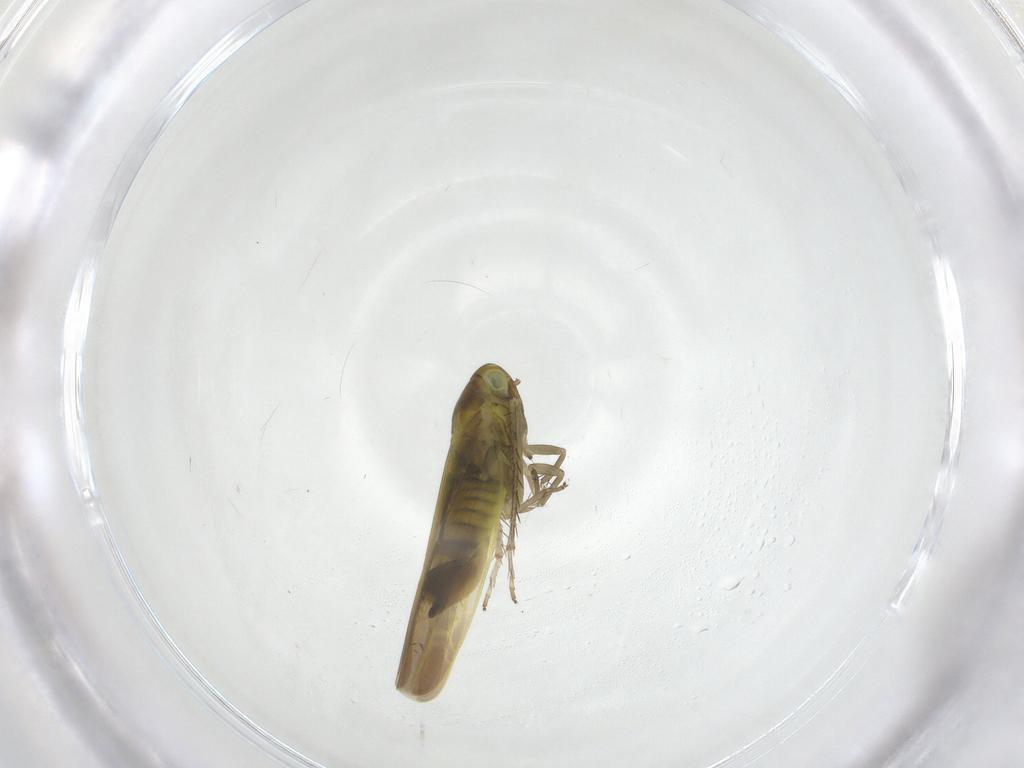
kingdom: Animalia
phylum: Arthropoda
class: Insecta
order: Hemiptera
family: Cicadellidae
